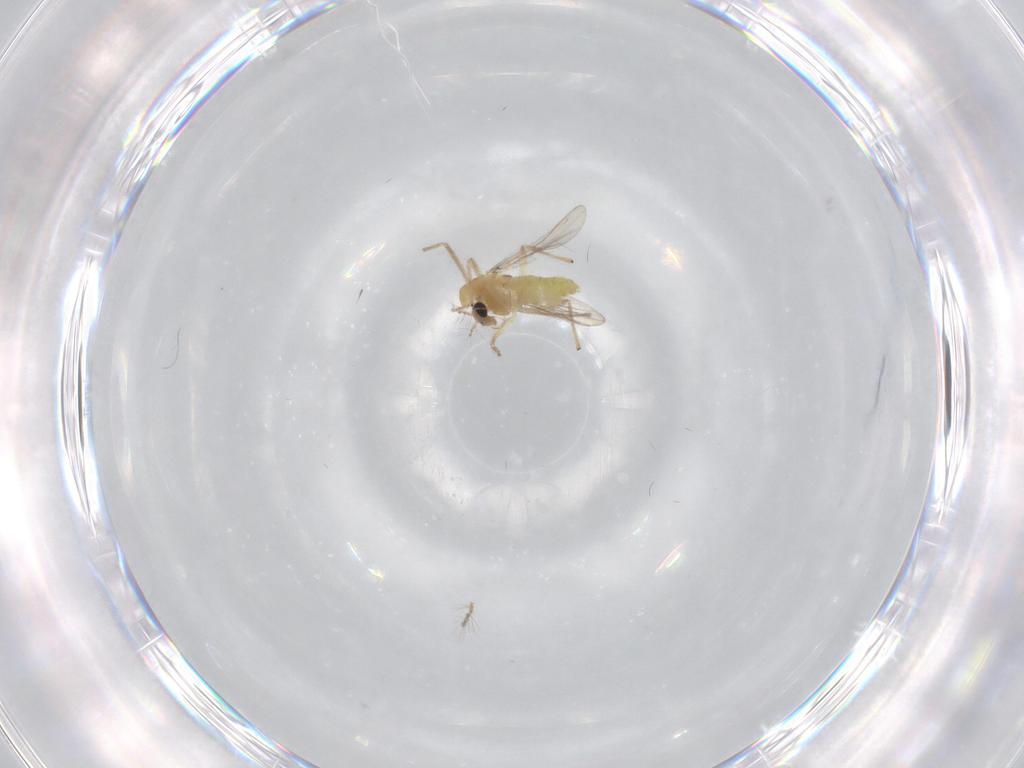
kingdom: Animalia
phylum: Arthropoda
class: Insecta
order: Diptera
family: Chironomidae
